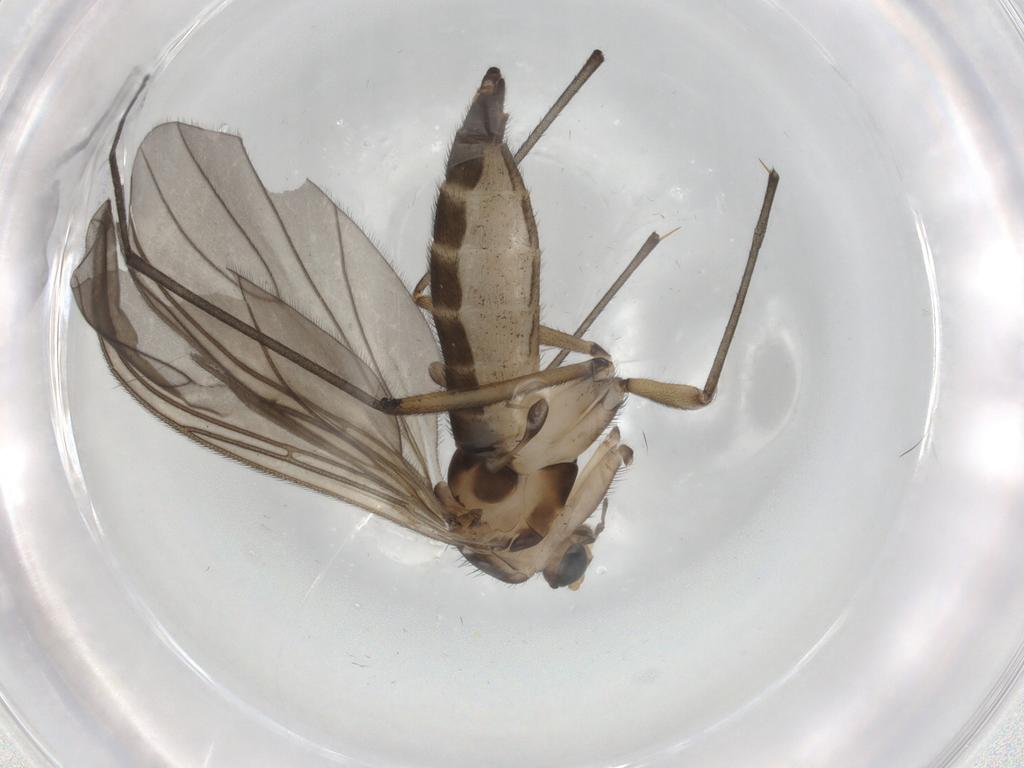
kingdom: Animalia
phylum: Arthropoda
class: Insecta
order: Diptera
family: Sciaridae
